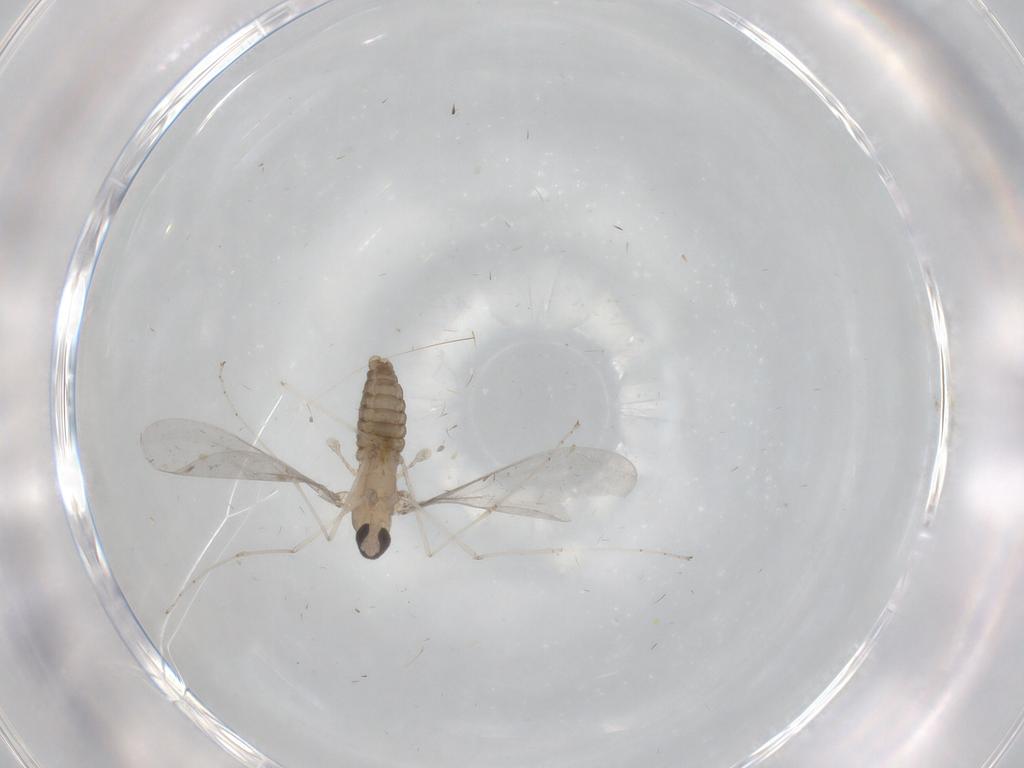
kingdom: Animalia
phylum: Arthropoda
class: Insecta
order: Diptera
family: Cecidomyiidae
